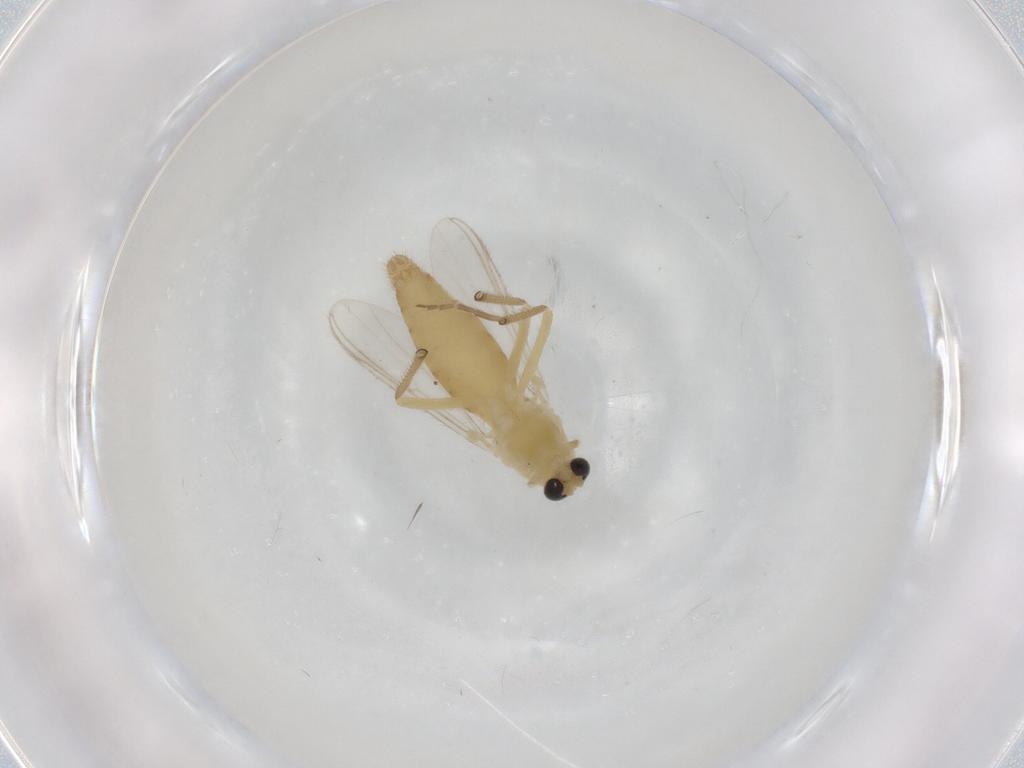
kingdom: Animalia
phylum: Arthropoda
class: Insecta
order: Diptera
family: Chironomidae
